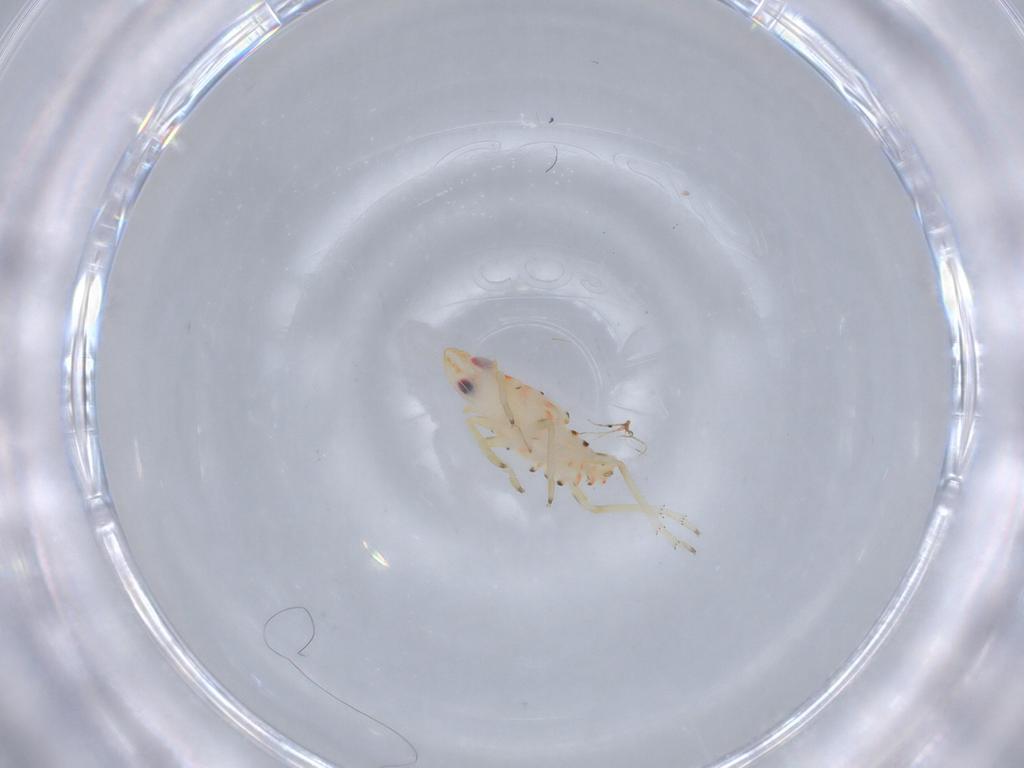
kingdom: Animalia
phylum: Arthropoda
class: Insecta
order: Hemiptera
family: Tropiduchidae
